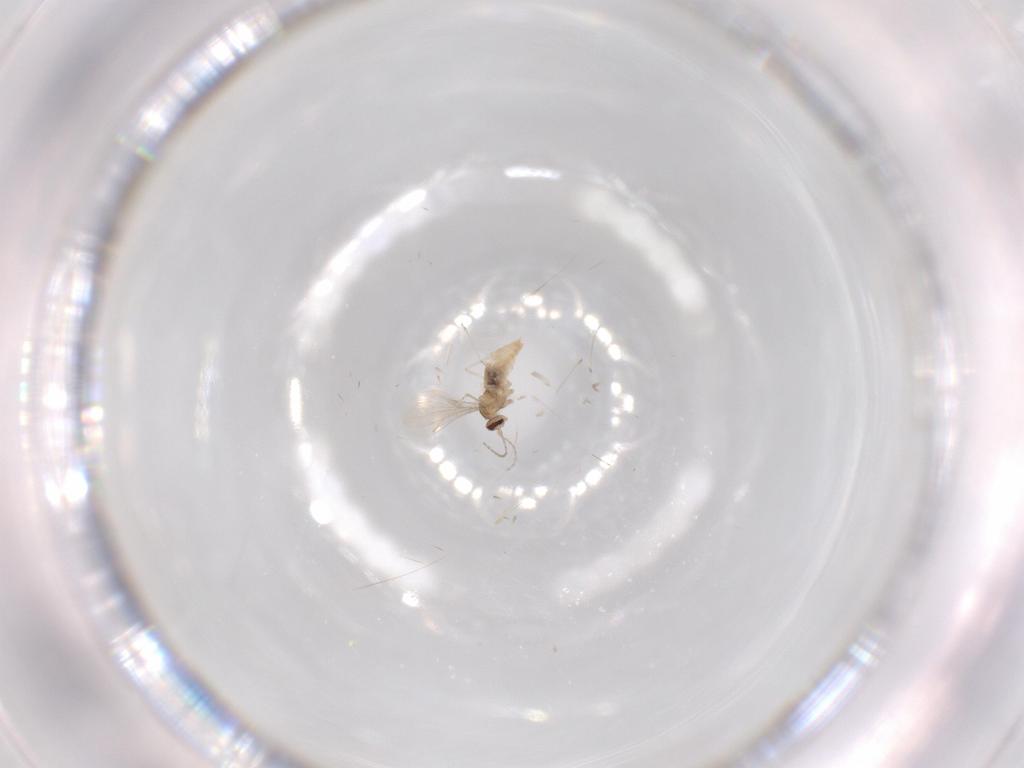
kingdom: Animalia
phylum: Arthropoda
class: Insecta
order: Diptera
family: Cecidomyiidae
